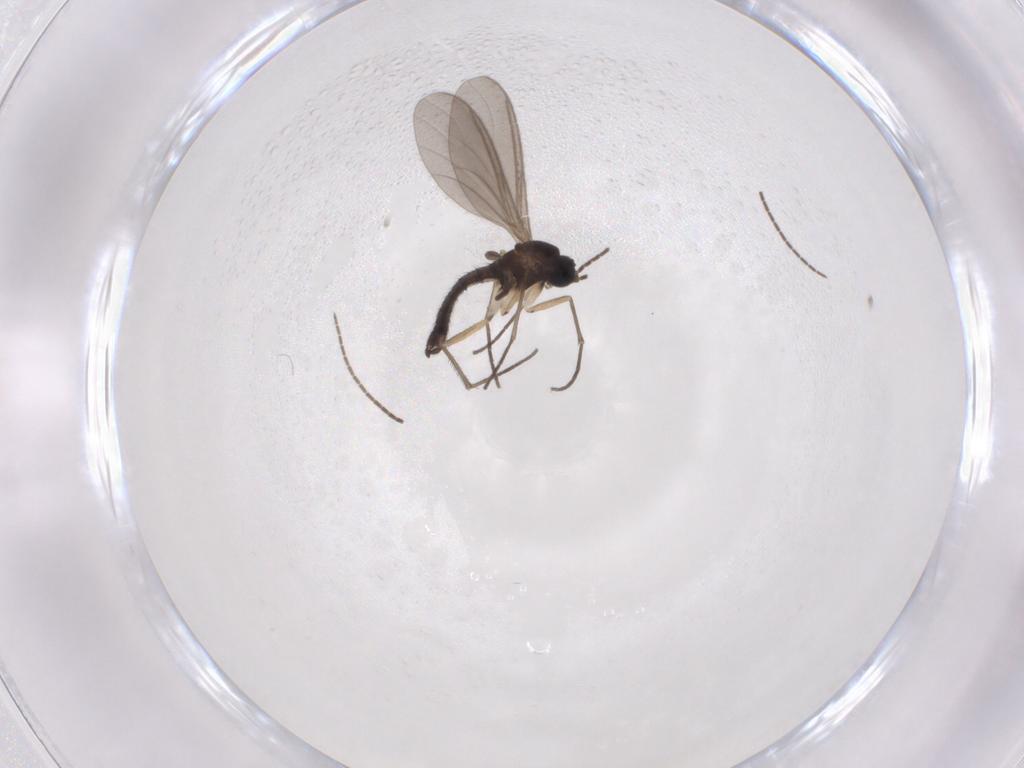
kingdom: Animalia
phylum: Arthropoda
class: Insecta
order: Diptera
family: Sciaridae
